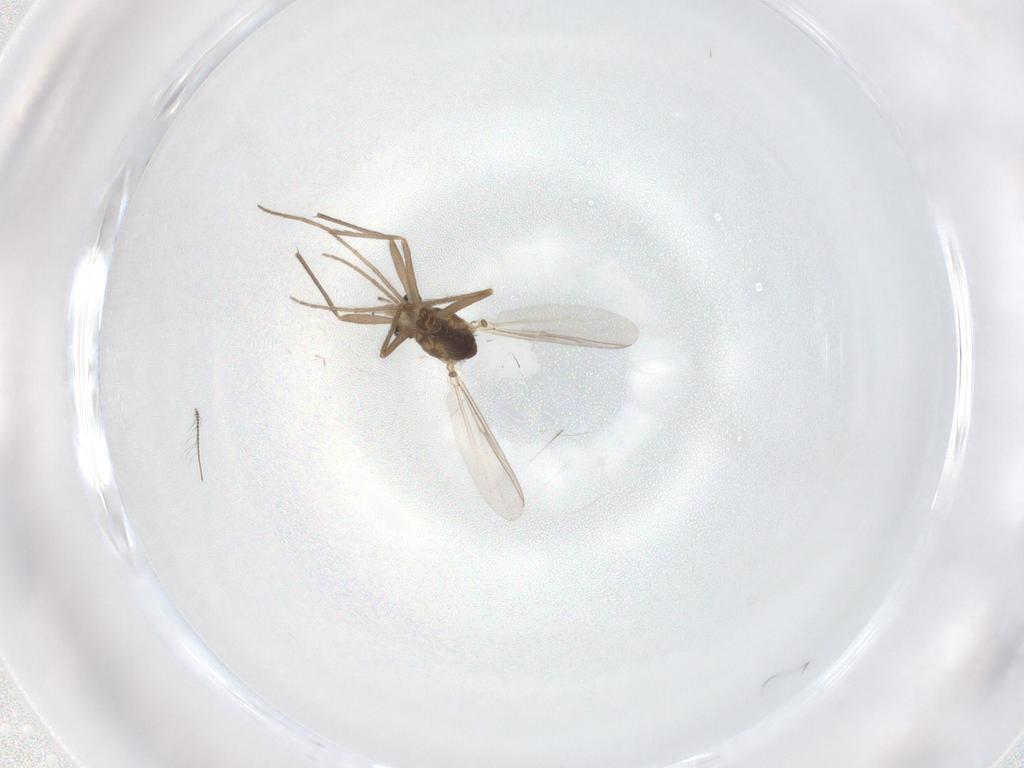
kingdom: Animalia
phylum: Arthropoda
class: Insecta
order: Diptera
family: Chironomidae
